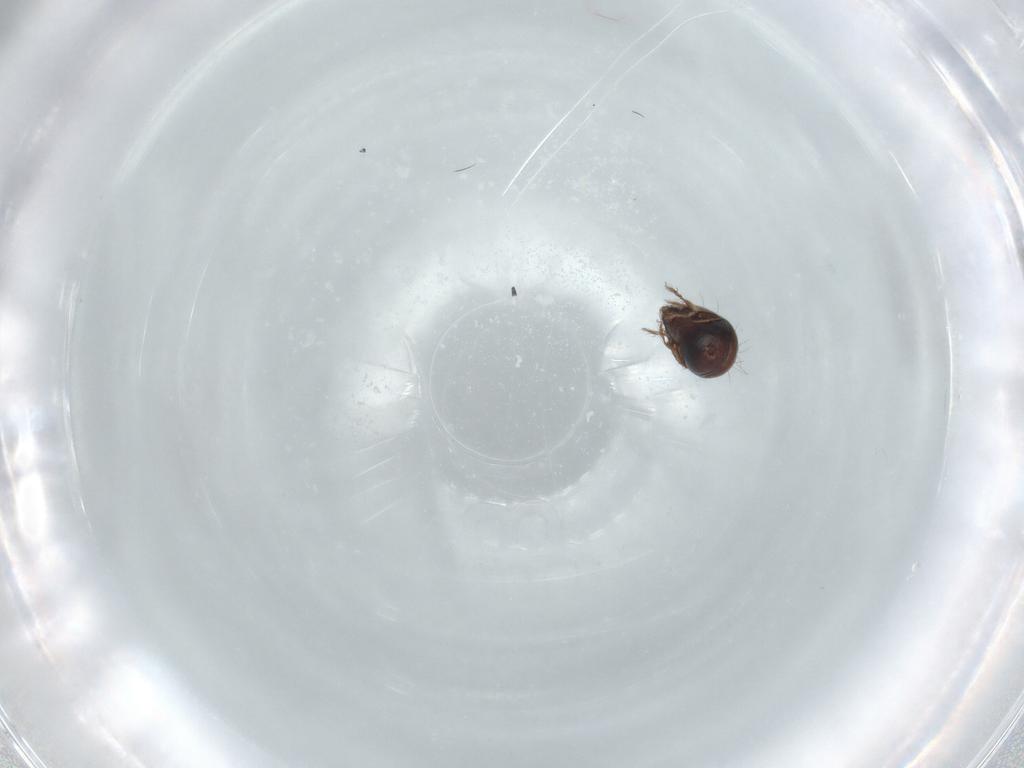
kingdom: Animalia
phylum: Arthropoda
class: Arachnida
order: Sarcoptiformes
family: Humerobatidae
